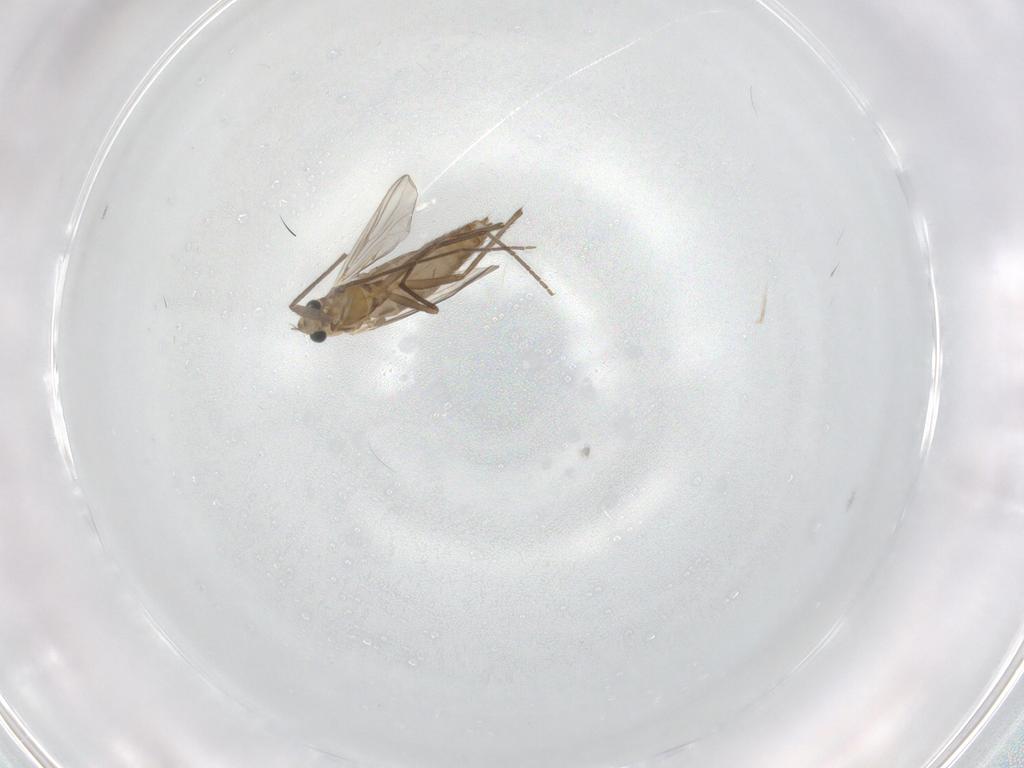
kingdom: Animalia
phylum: Arthropoda
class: Insecta
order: Diptera
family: Chironomidae
